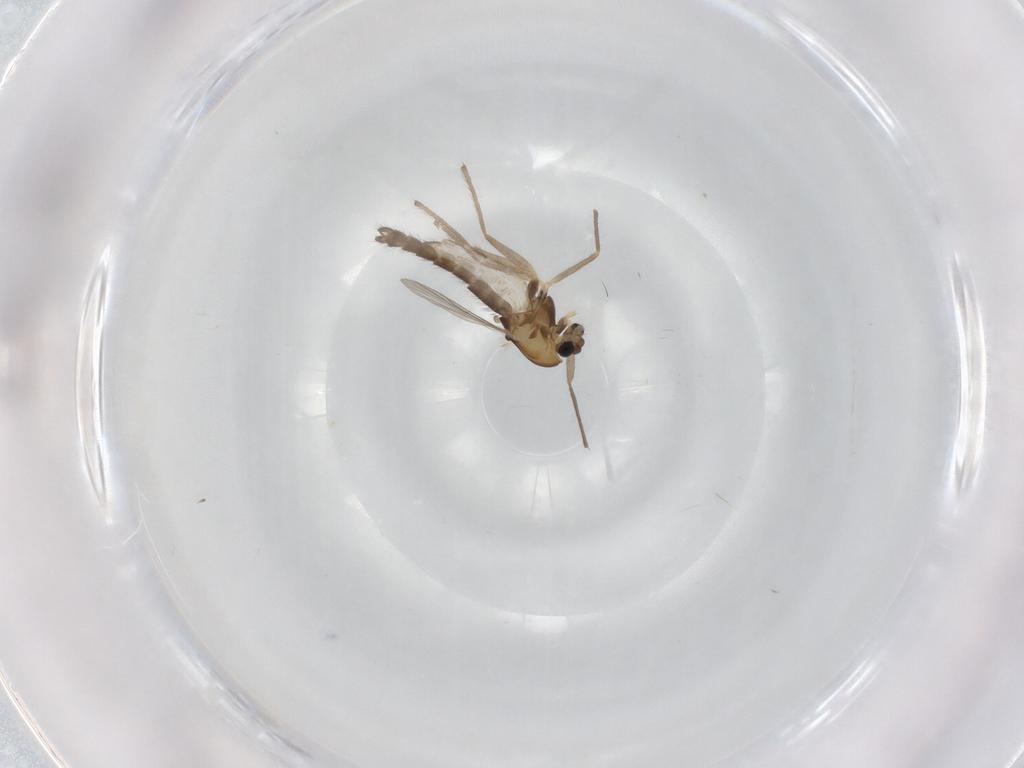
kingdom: Animalia
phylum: Arthropoda
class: Insecta
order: Diptera
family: Chironomidae
